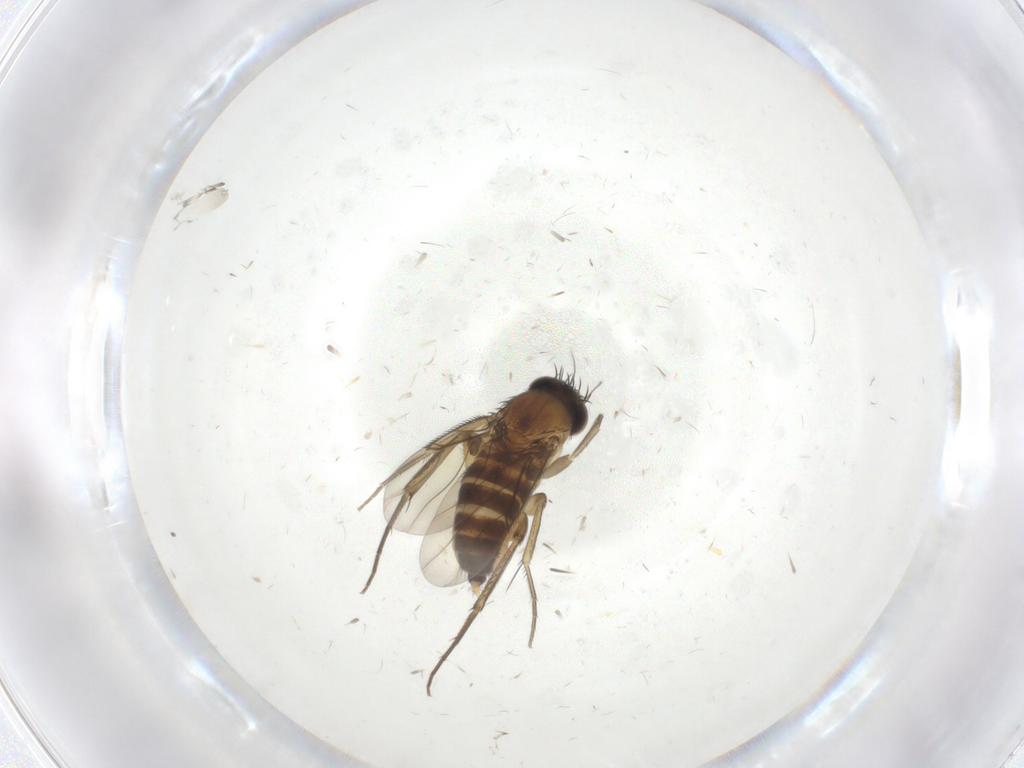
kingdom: Animalia
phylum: Arthropoda
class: Insecta
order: Diptera
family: Phoridae
